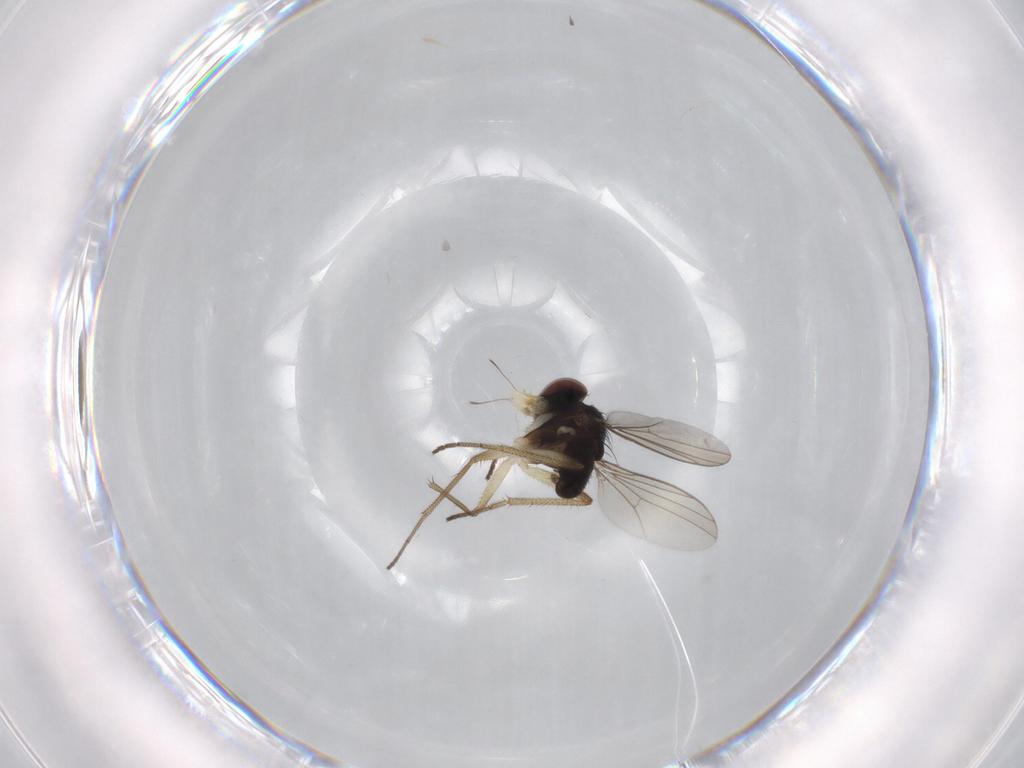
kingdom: Animalia
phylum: Arthropoda
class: Insecta
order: Diptera
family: Dolichopodidae
